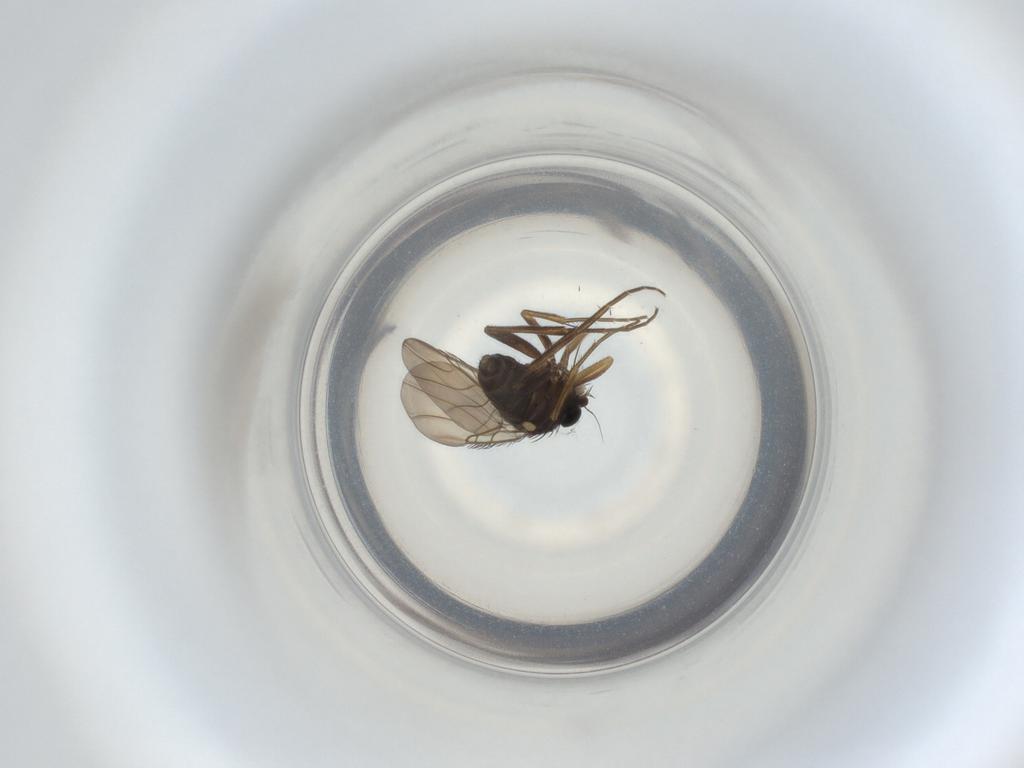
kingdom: Animalia
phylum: Arthropoda
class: Insecta
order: Diptera
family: Phoridae
